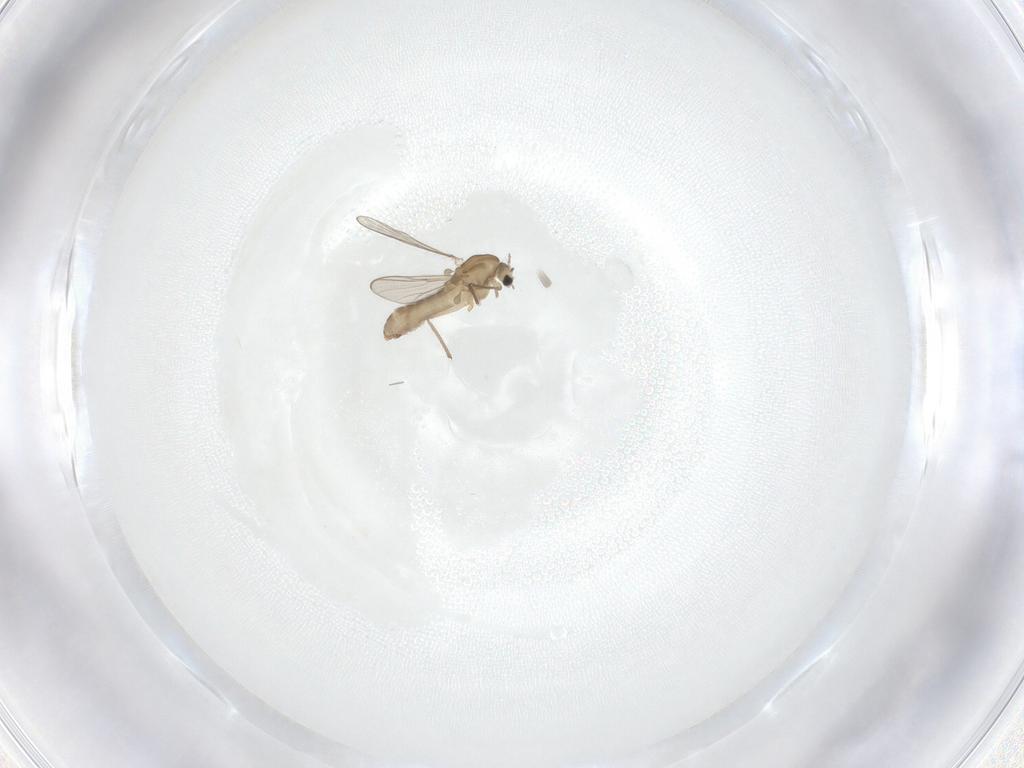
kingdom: Animalia
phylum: Arthropoda
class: Insecta
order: Diptera
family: Chironomidae
